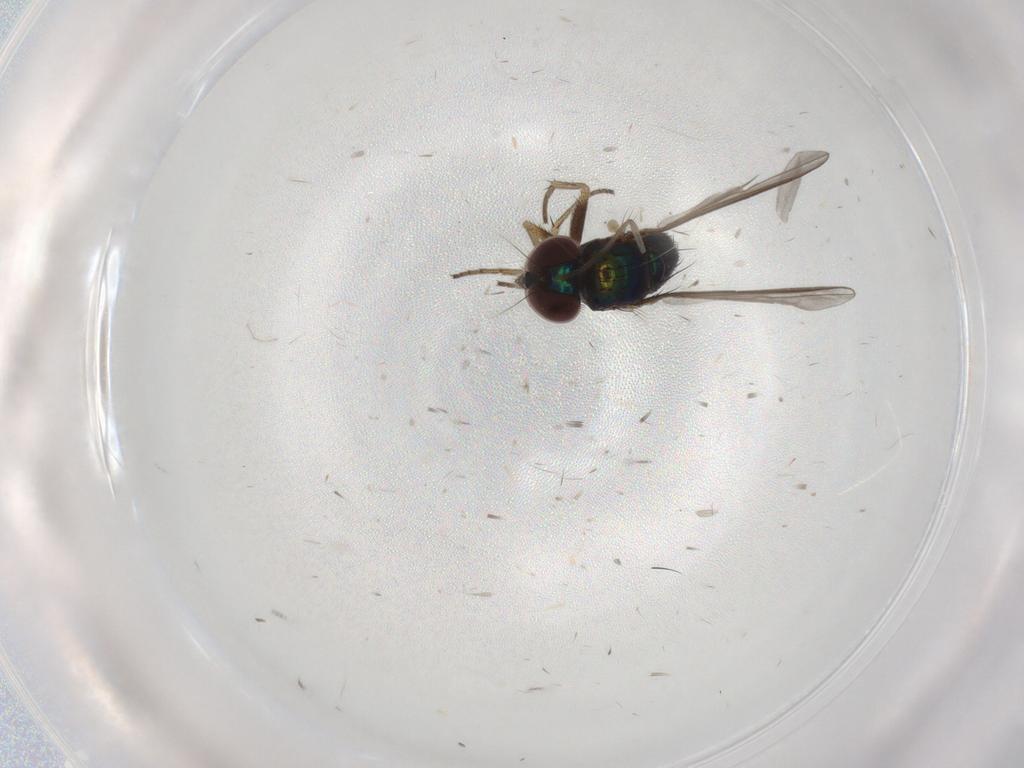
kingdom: Animalia
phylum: Arthropoda
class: Insecta
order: Diptera
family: Dolichopodidae
